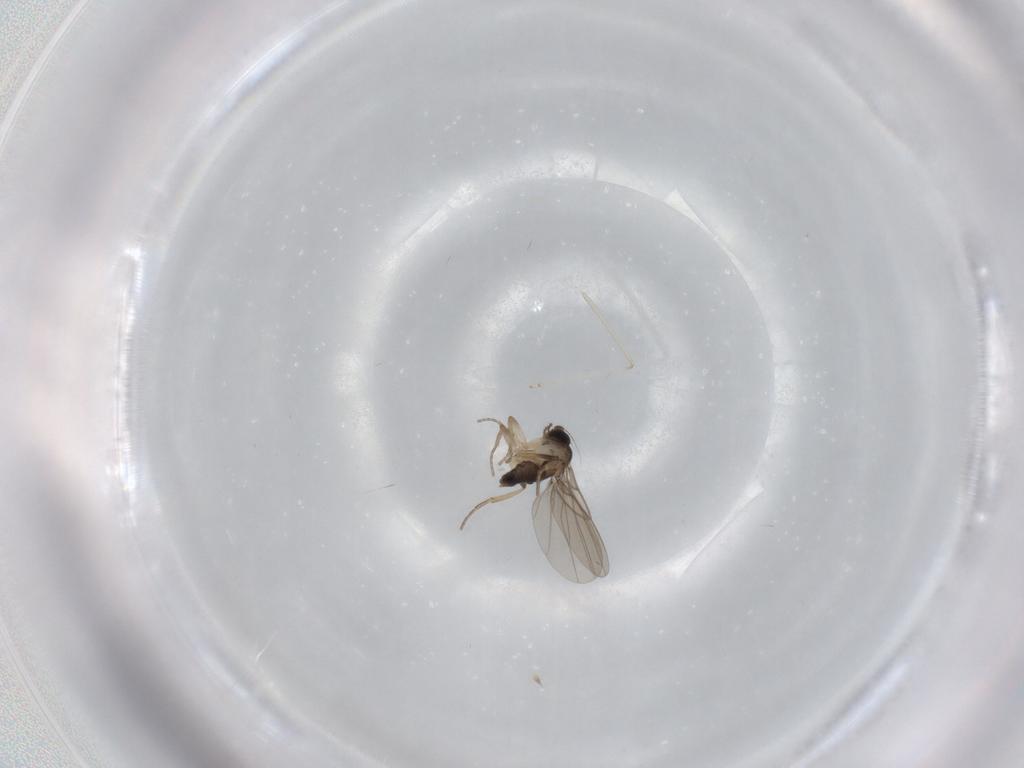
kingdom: Animalia
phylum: Arthropoda
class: Insecta
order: Diptera
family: Phoridae
